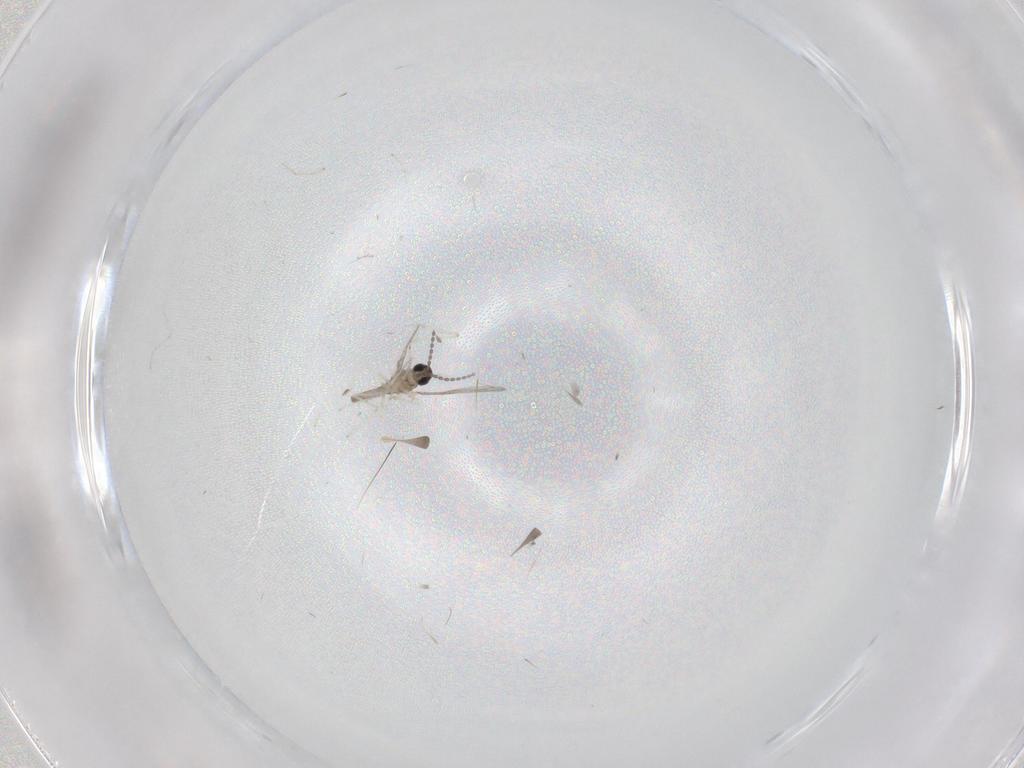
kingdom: Animalia
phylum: Arthropoda
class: Insecta
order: Diptera
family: Cecidomyiidae
